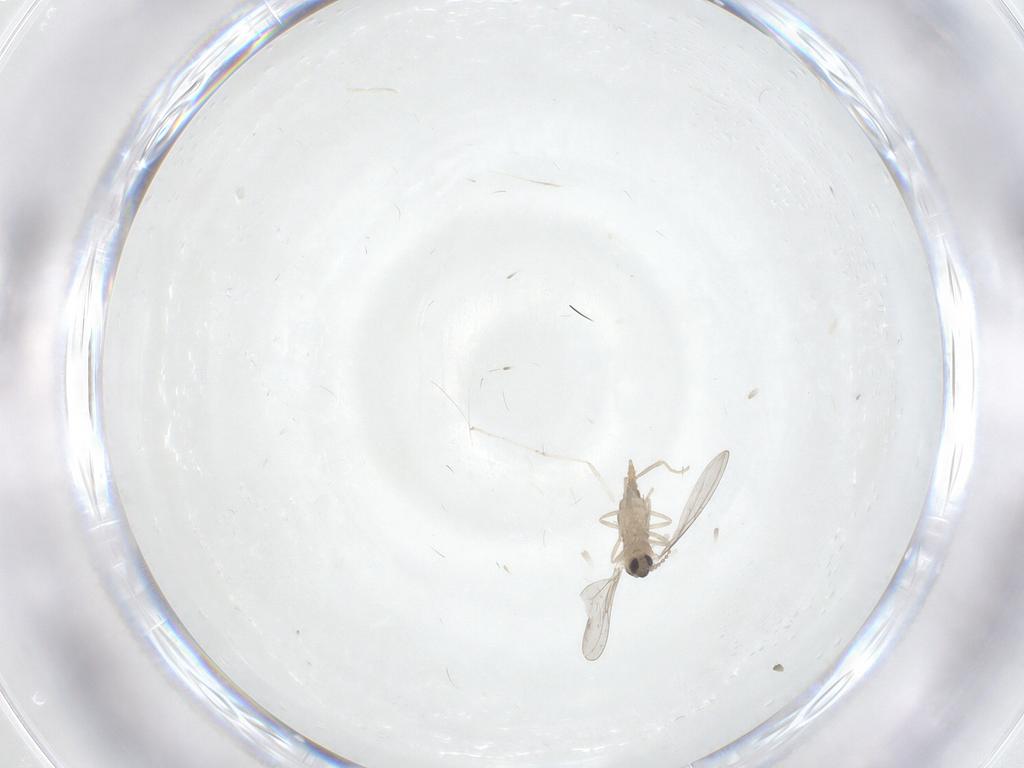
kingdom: Animalia
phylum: Arthropoda
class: Insecta
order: Diptera
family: Cecidomyiidae
